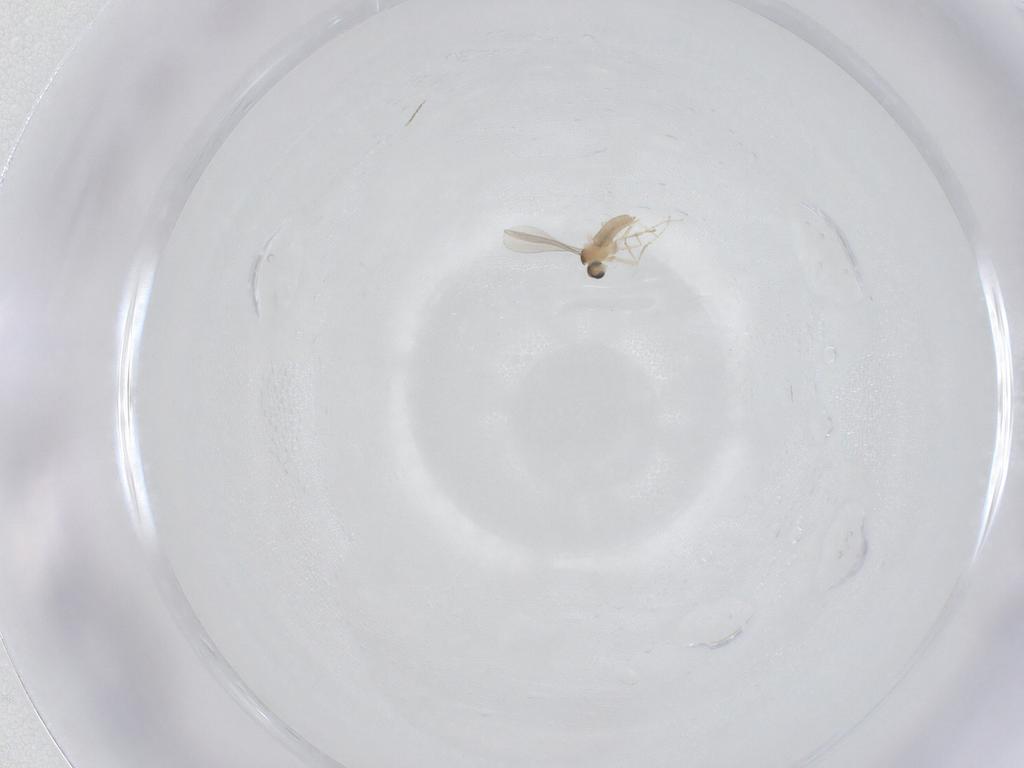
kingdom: Animalia
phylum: Arthropoda
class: Insecta
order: Diptera
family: Cecidomyiidae
